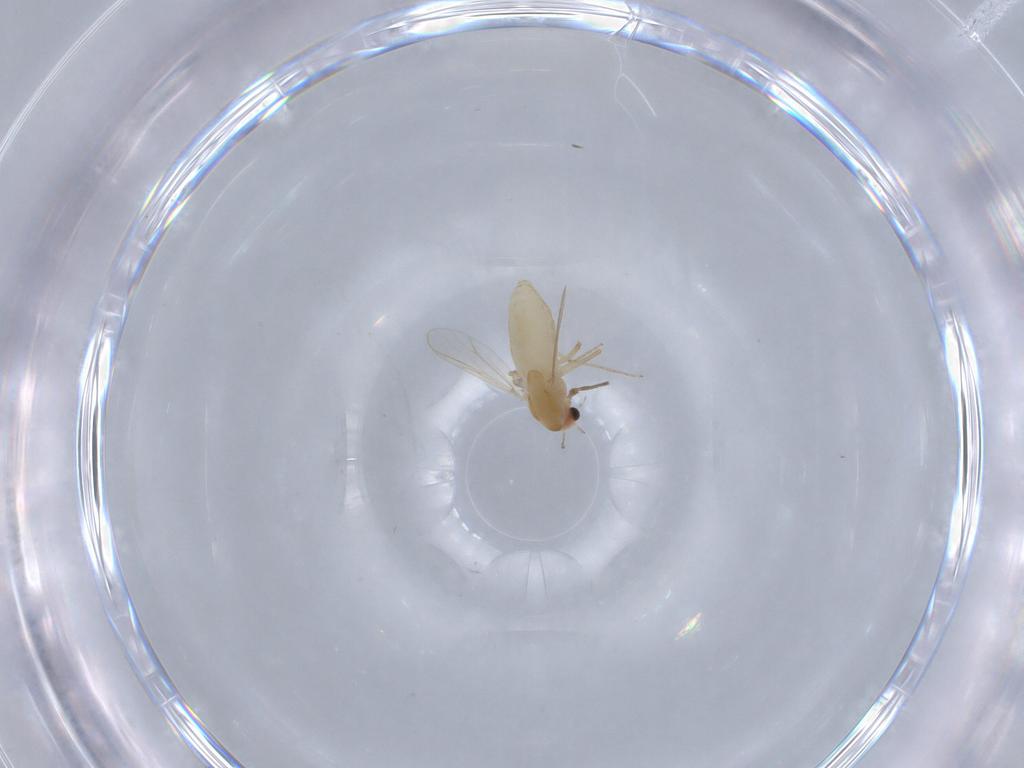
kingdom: Animalia
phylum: Arthropoda
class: Insecta
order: Diptera
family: Chironomidae
